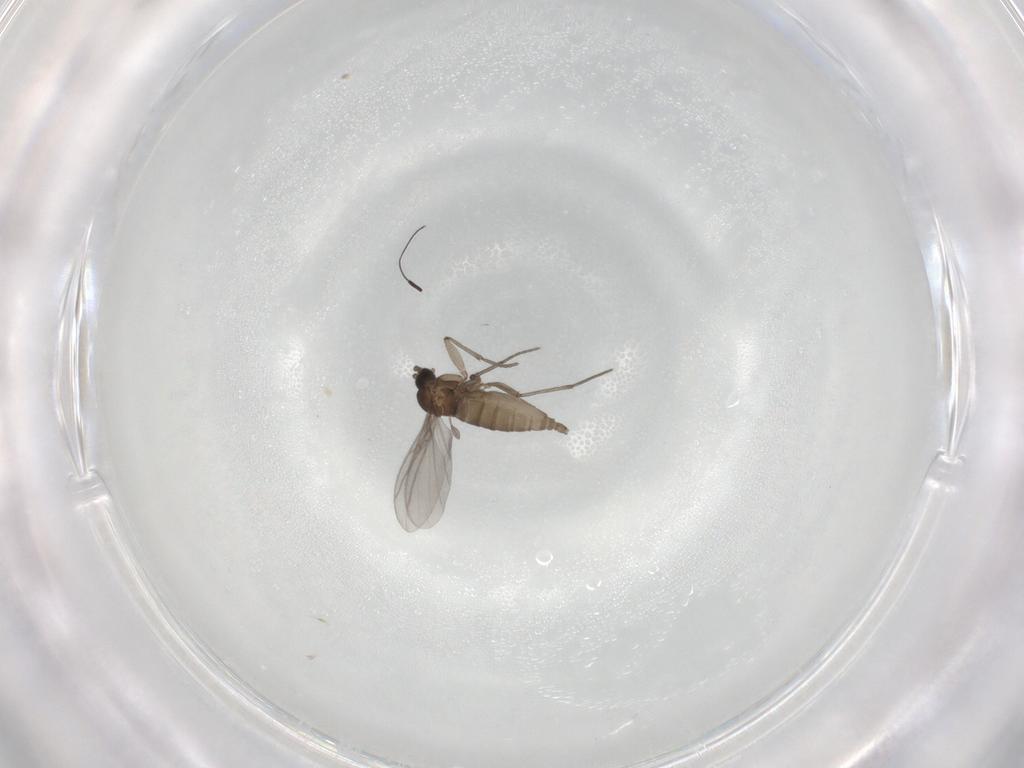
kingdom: Animalia
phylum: Arthropoda
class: Insecta
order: Diptera
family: Sciaridae
